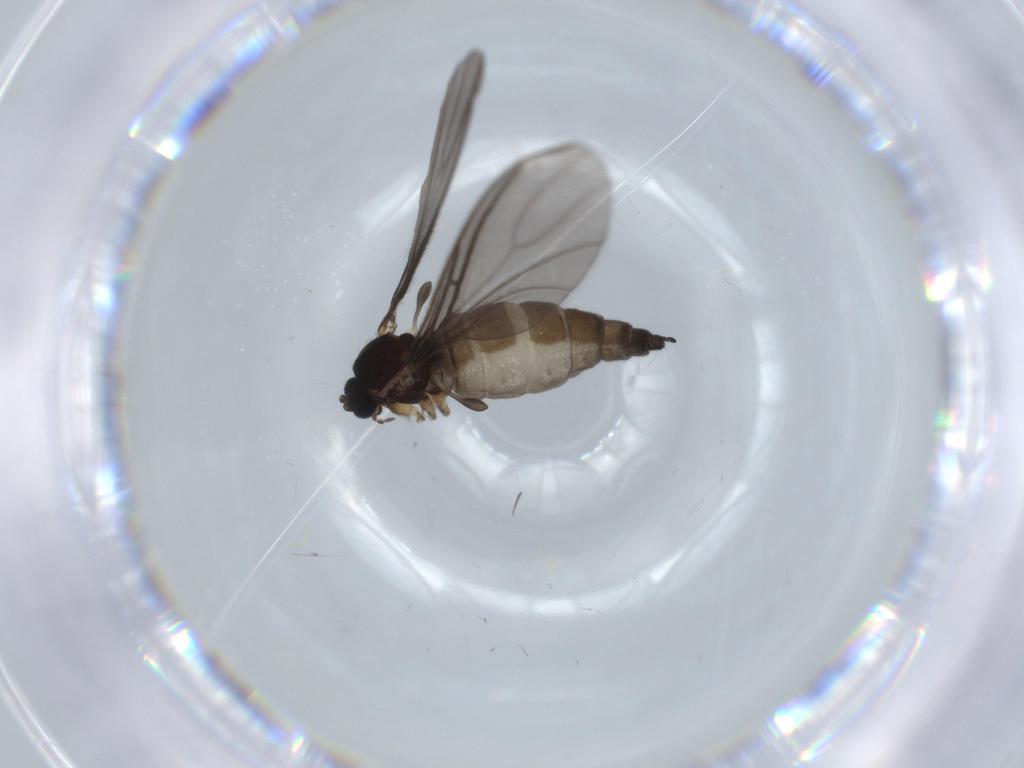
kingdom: Animalia
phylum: Arthropoda
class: Insecta
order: Diptera
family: Sciaridae
